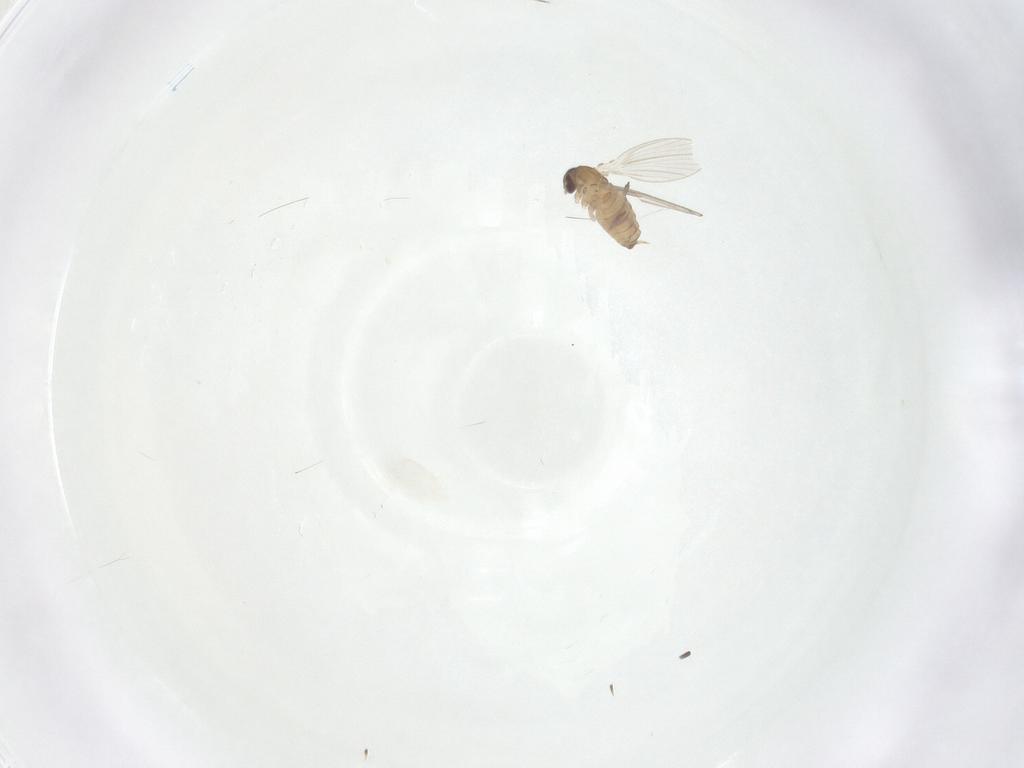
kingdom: Animalia
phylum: Arthropoda
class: Insecta
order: Diptera
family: Psychodidae
